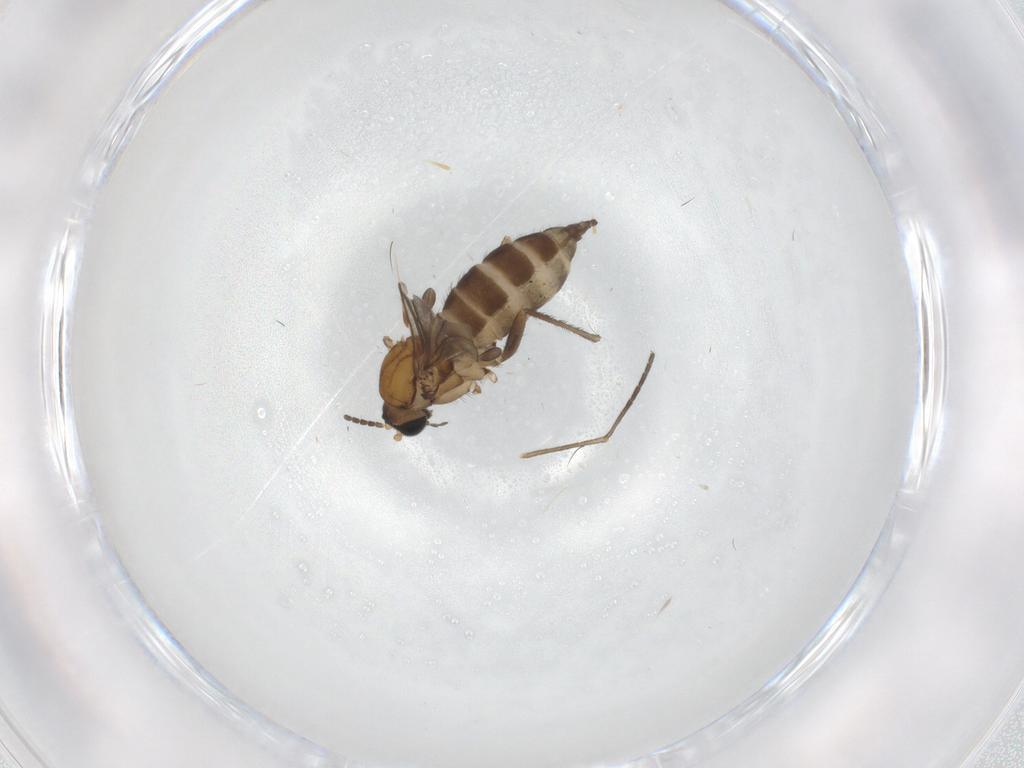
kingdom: Animalia
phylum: Arthropoda
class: Insecta
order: Diptera
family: Sciaridae
